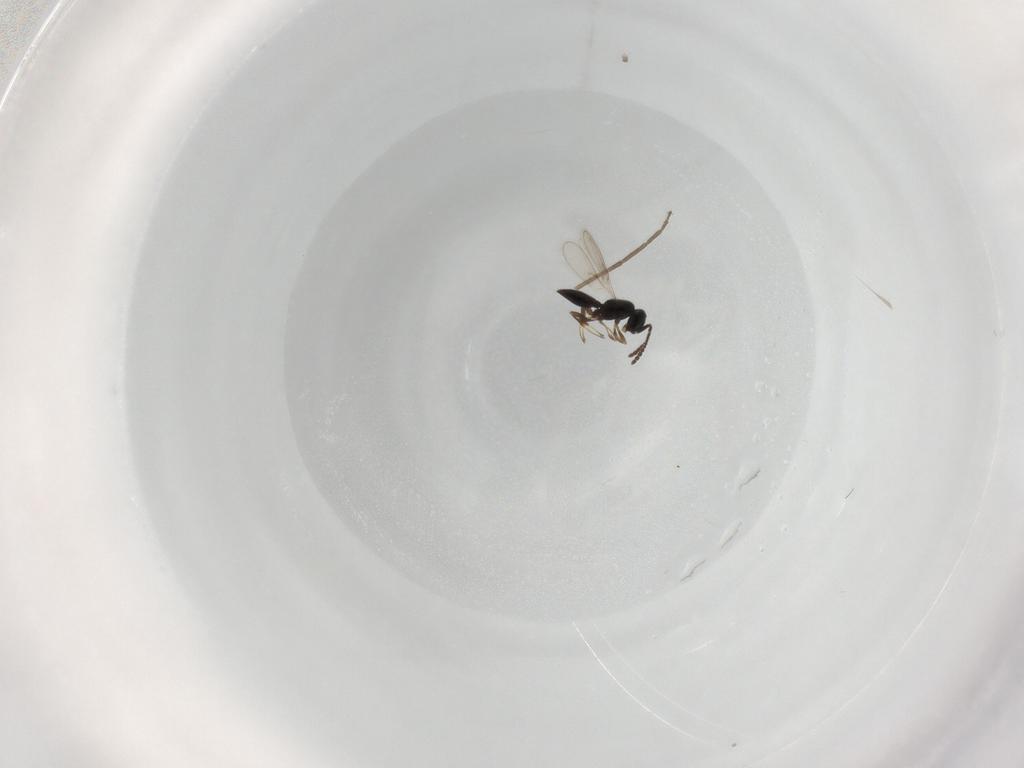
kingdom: Animalia
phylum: Arthropoda
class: Insecta
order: Hymenoptera
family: Scelionidae
